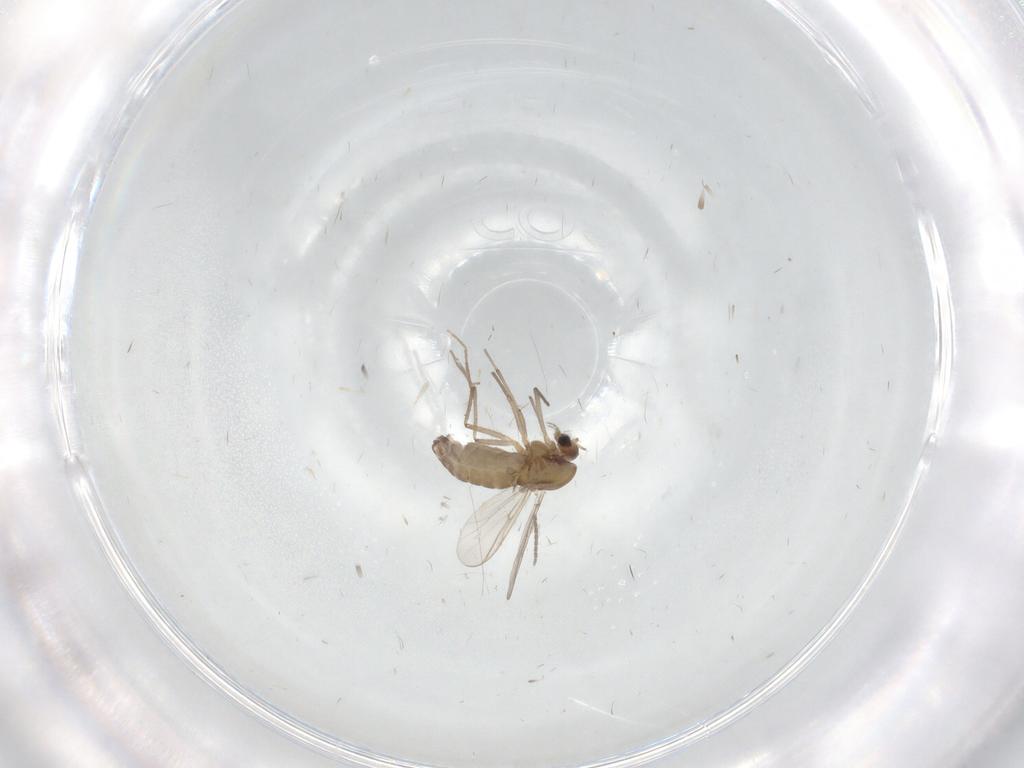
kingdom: Animalia
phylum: Arthropoda
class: Insecta
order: Diptera
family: Chironomidae
